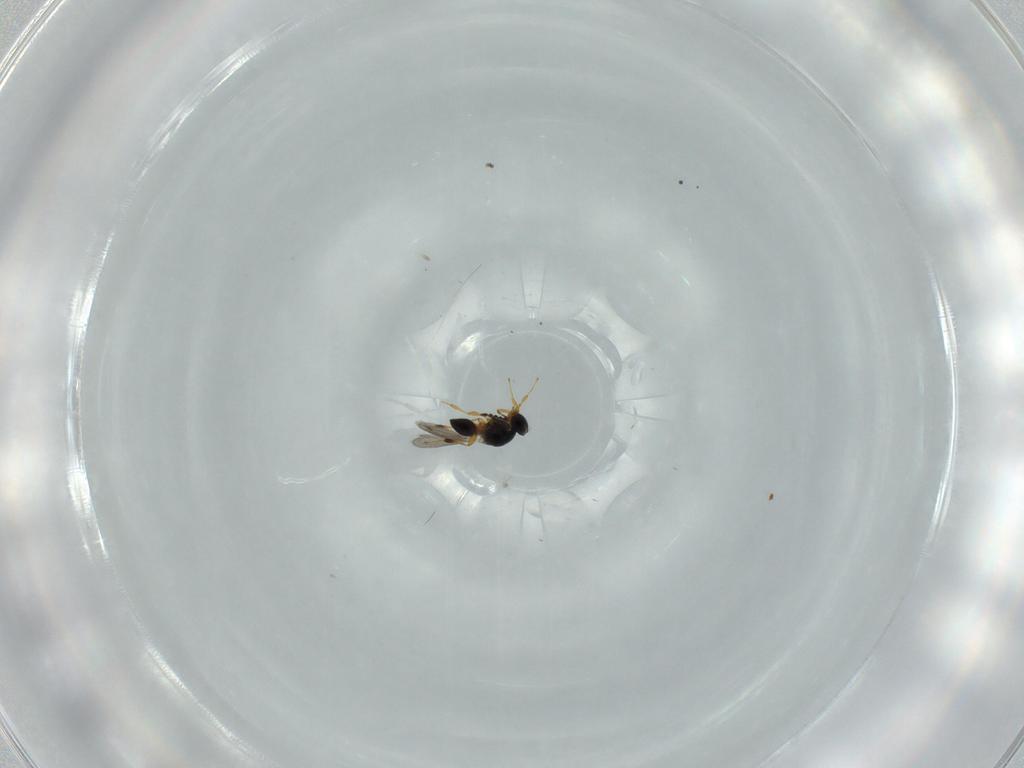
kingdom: Animalia
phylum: Arthropoda
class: Insecta
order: Hymenoptera
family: Platygastridae
